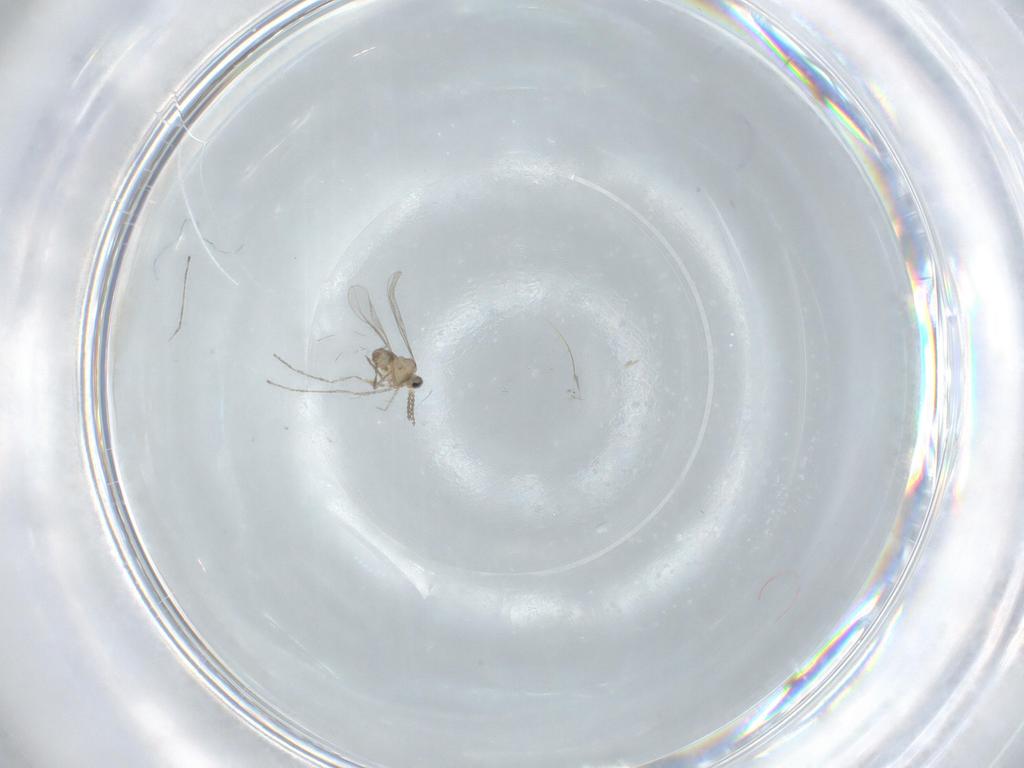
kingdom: Animalia
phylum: Arthropoda
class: Insecta
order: Diptera
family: Cecidomyiidae
